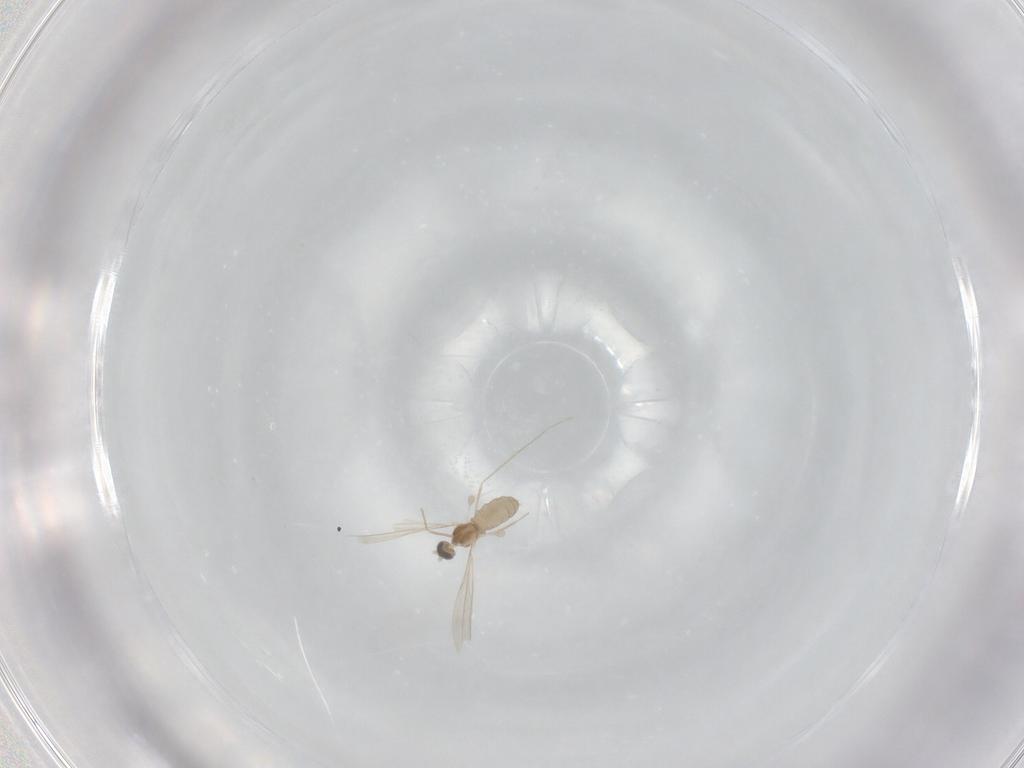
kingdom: Animalia
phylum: Arthropoda
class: Insecta
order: Diptera
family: Cecidomyiidae
